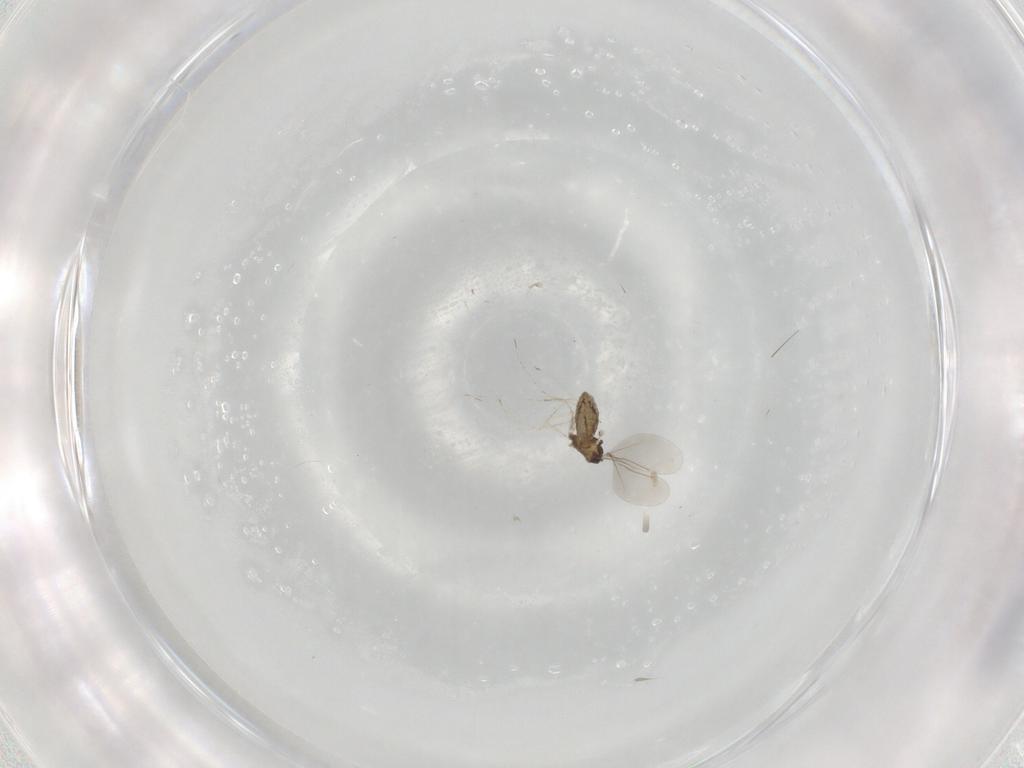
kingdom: Animalia
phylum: Arthropoda
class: Insecta
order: Diptera
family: Cecidomyiidae
